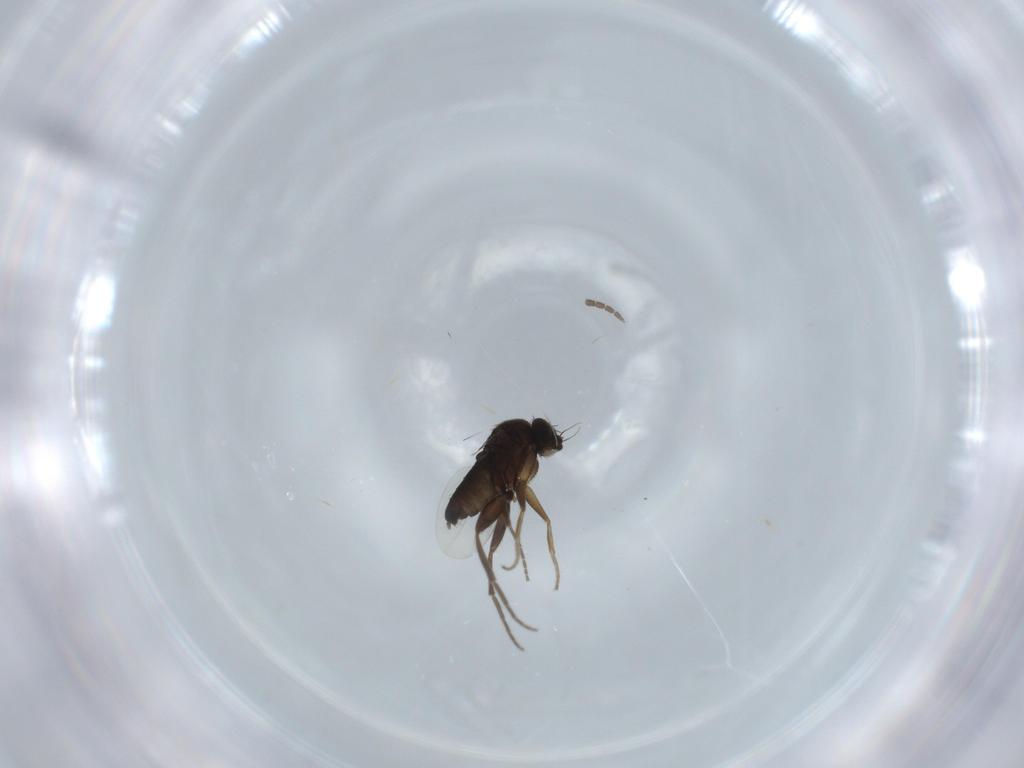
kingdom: Animalia
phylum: Arthropoda
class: Insecta
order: Diptera
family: Phoridae
